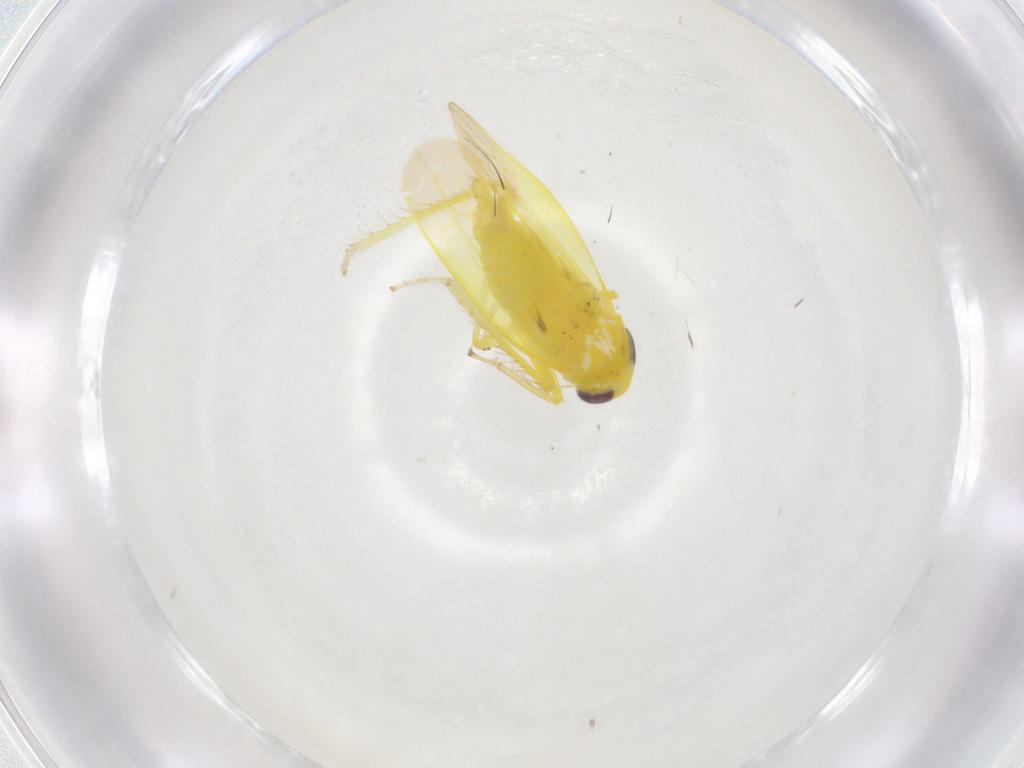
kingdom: Animalia
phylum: Arthropoda
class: Insecta
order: Hemiptera
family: Cicadellidae
